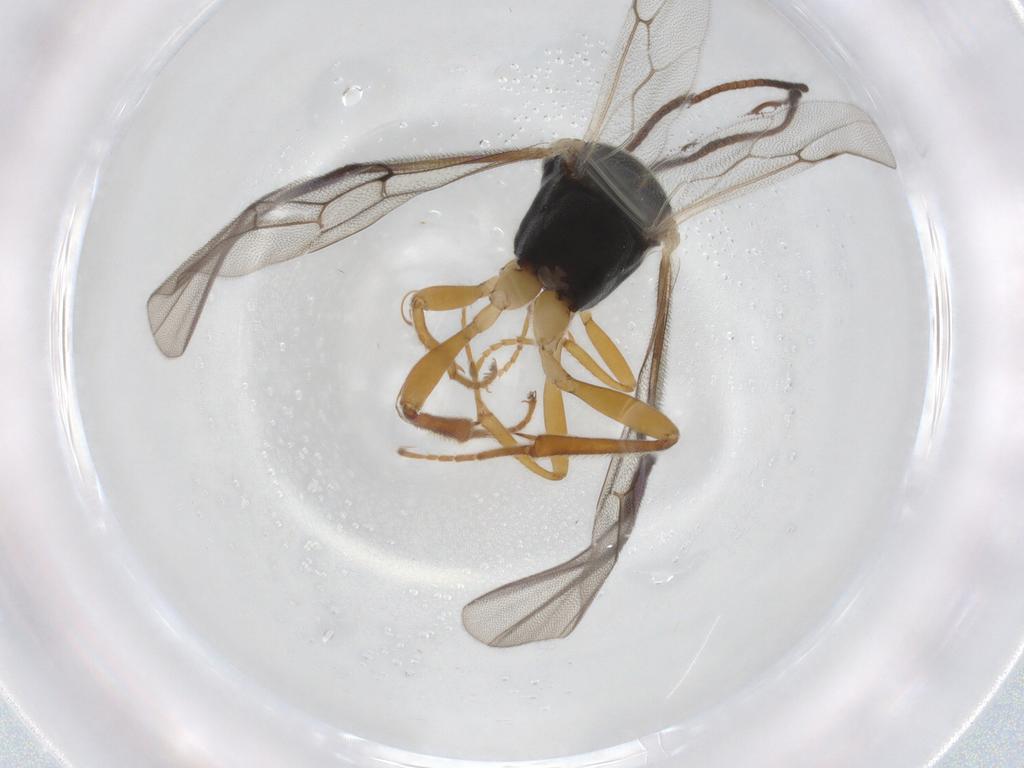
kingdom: Animalia
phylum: Arthropoda
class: Insecta
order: Hymenoptera
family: Ichneumonidae
